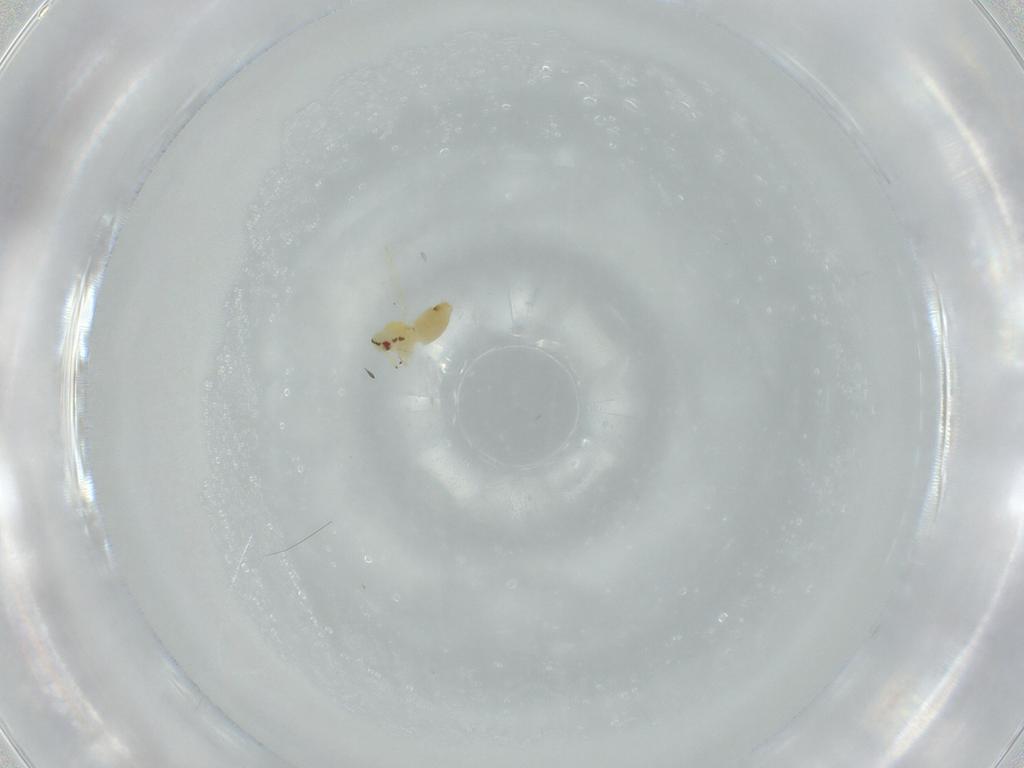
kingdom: Animalia
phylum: Arthropoda
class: Insecta
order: Hemiptera
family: Aleyrodidae
